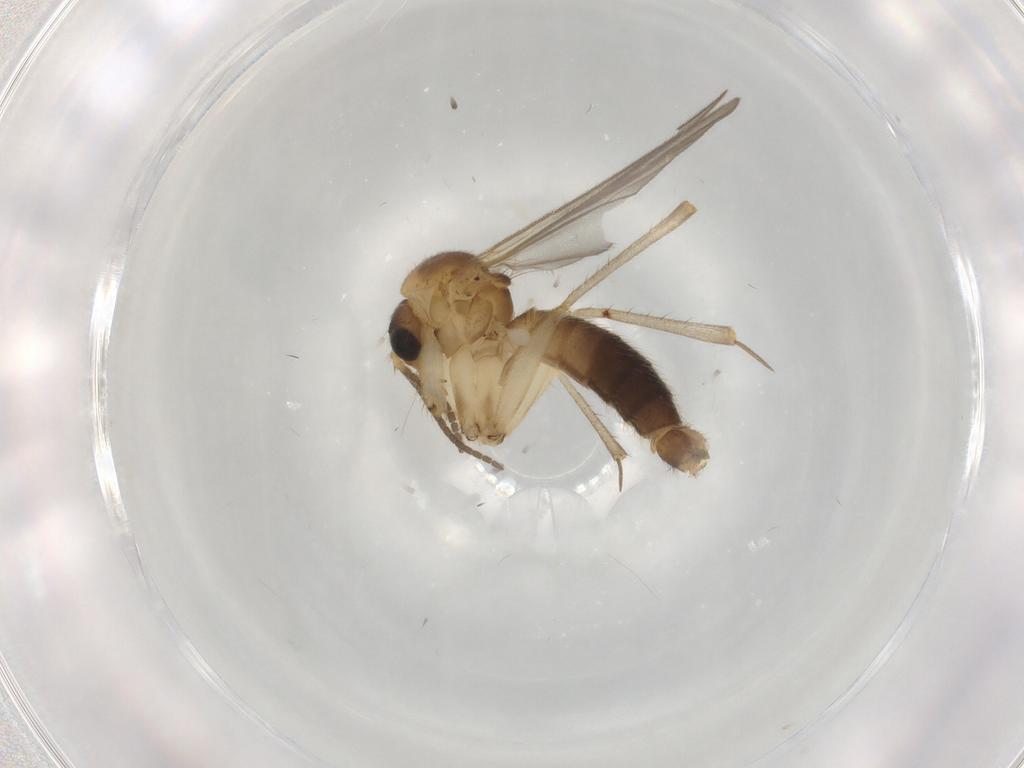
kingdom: Animalia
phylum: Arthropoda
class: Insecta
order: Diptera
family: Mycetophilidae
